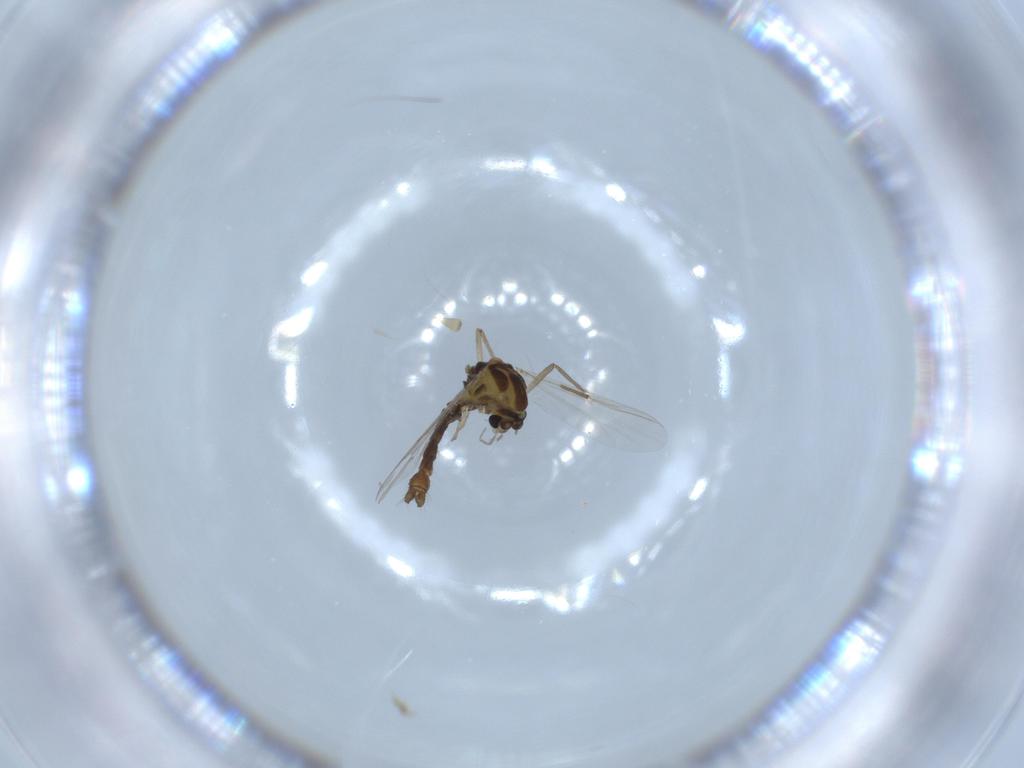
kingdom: Animalia
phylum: Arthropoda
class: Insecta
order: Diptera
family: Chironomidae
